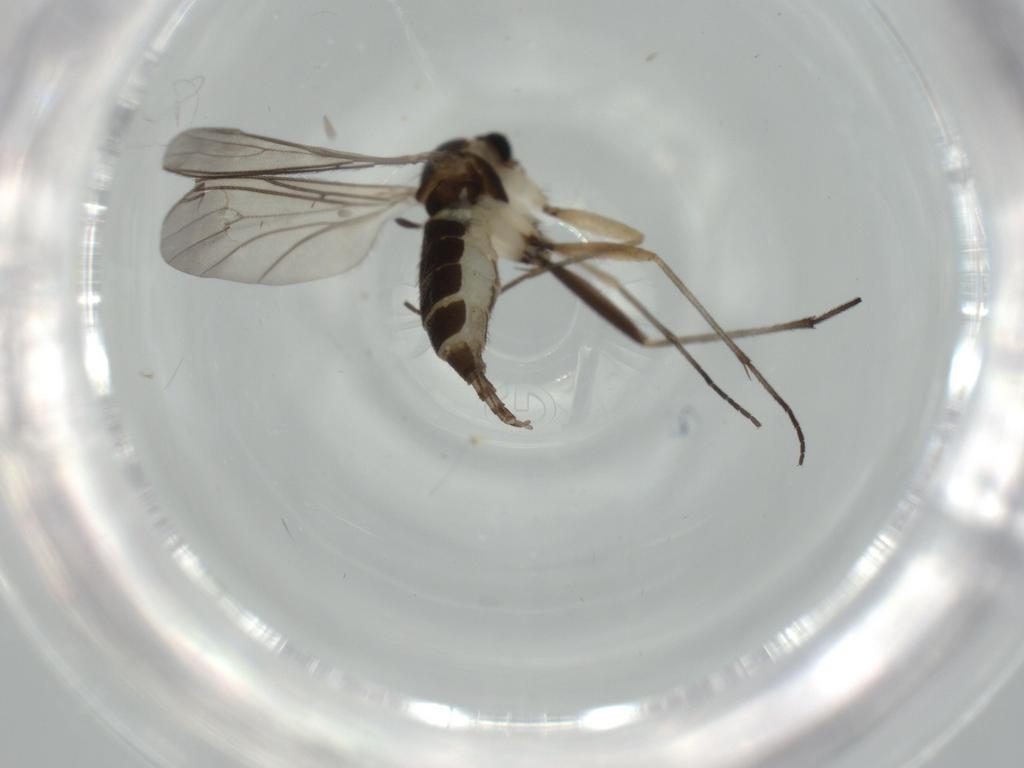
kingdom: Animalia
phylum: Arthropoda
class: Insecta
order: Diptera
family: Sciaridae
